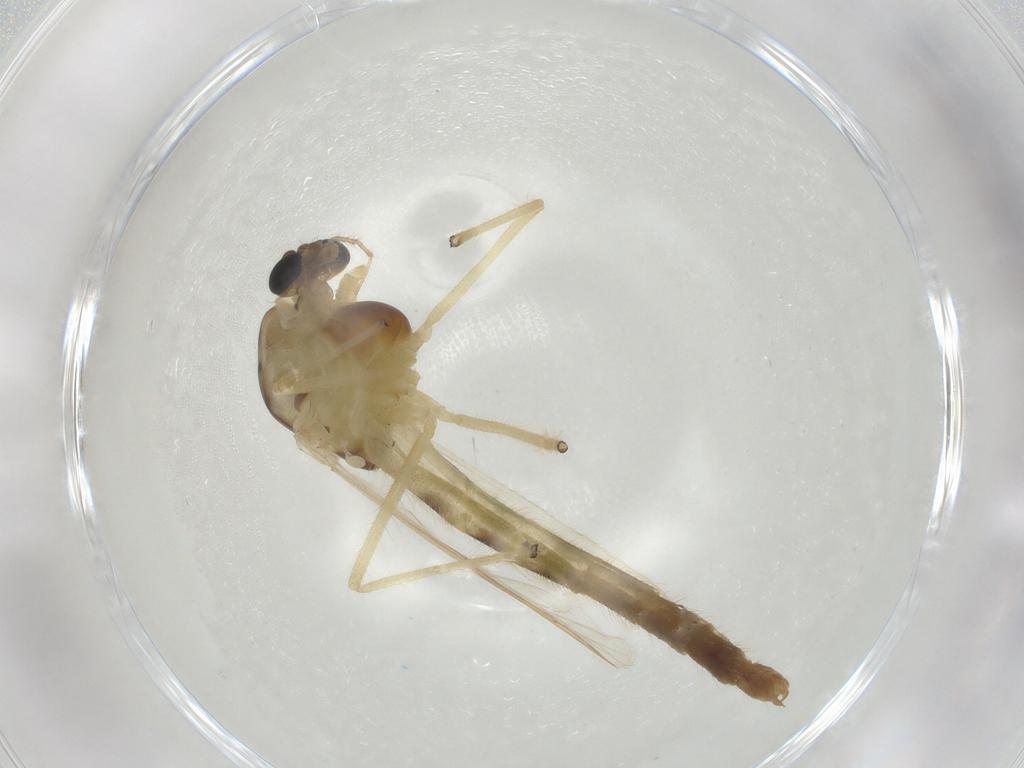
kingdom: Animalia
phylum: Arthropoda
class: Insecta
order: Diptera
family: Chironomidae
